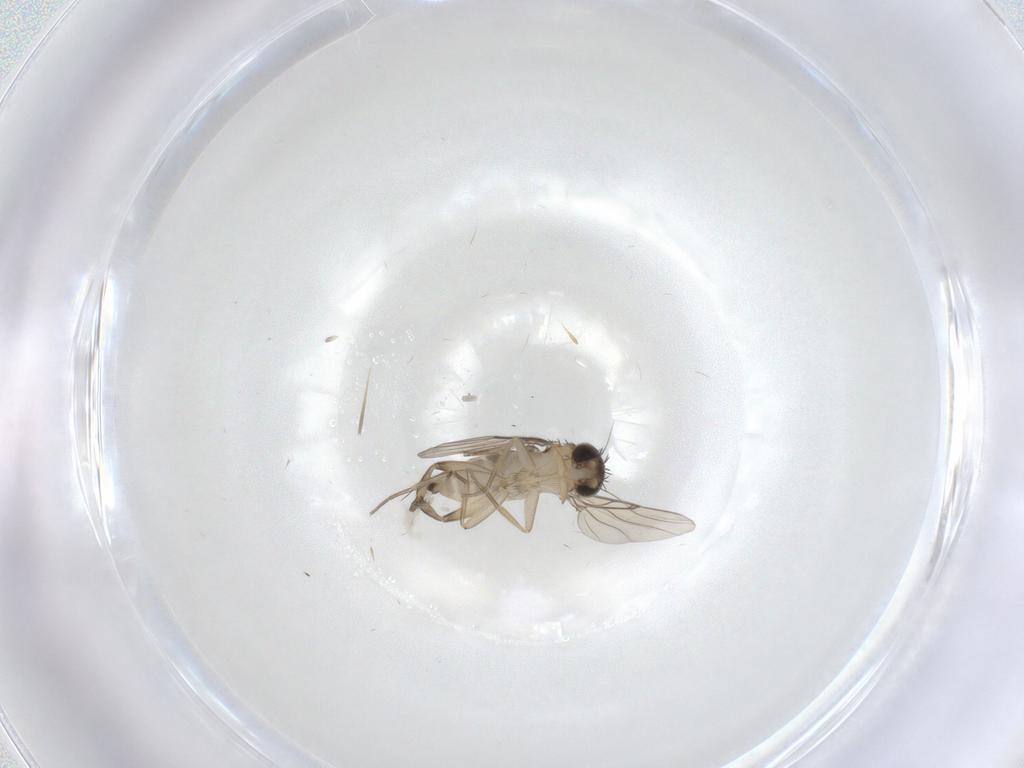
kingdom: Animalia
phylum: Arthropoda
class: Insecta
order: Diptera
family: Phoridae
